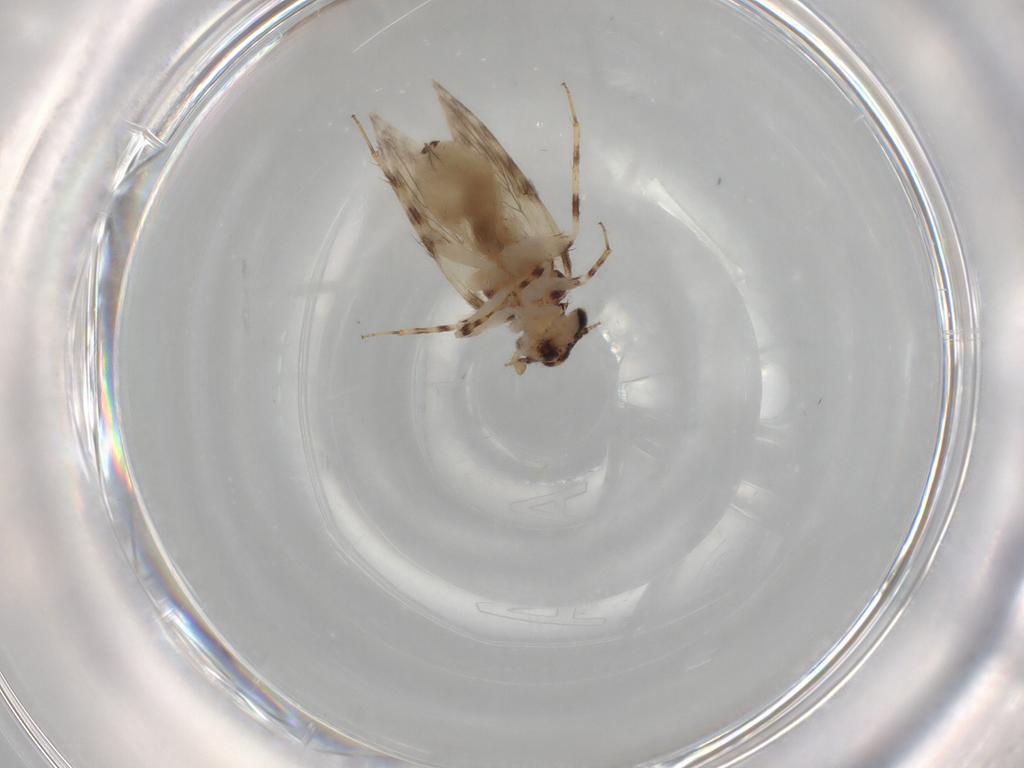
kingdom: Animalia
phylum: Arthropoda
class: Insecta
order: Psocodea
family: Lepidopsocidae
